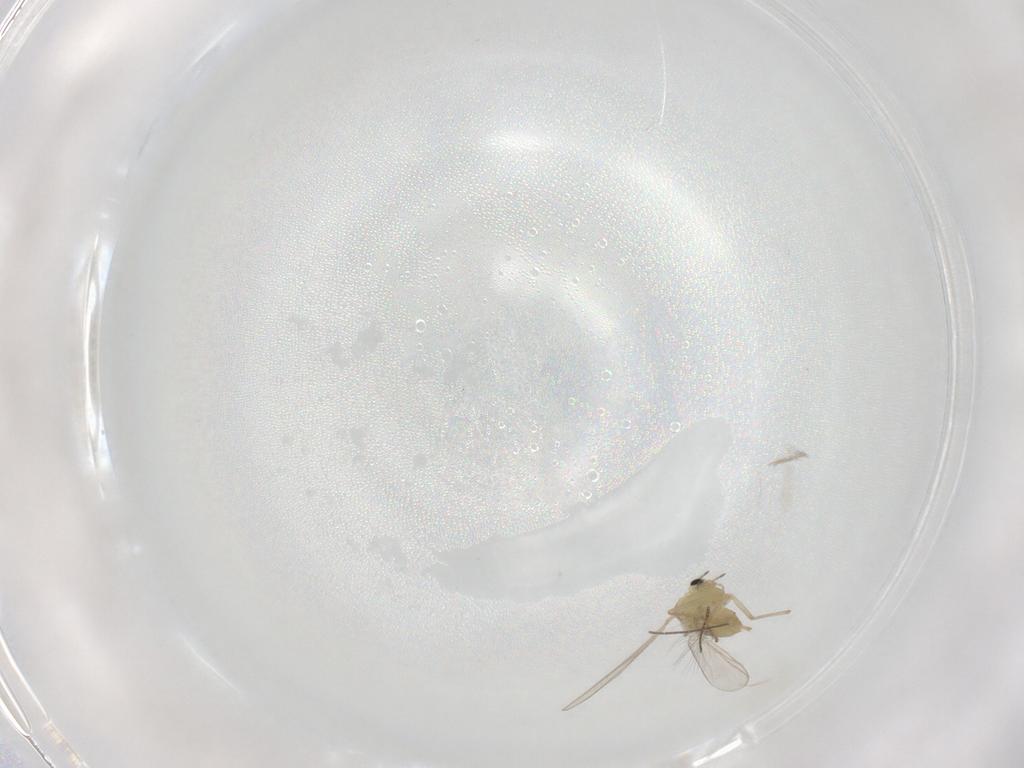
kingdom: Animalia
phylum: Arthropoda
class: Insecta
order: Diptera
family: Chironomidae
